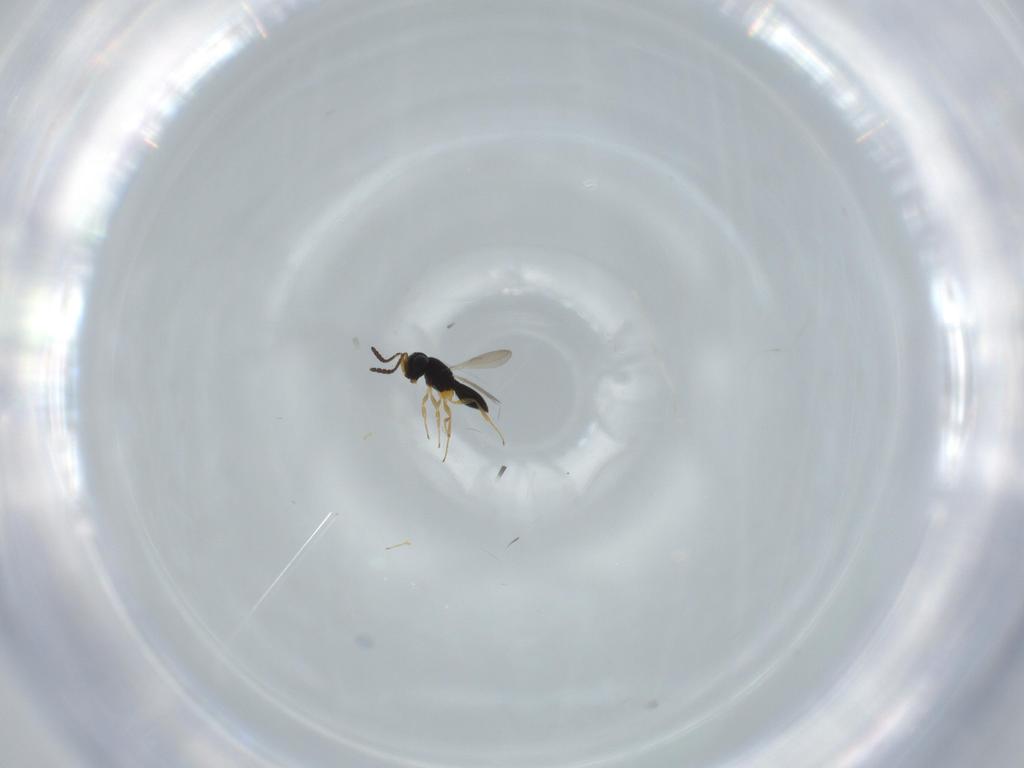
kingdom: Animalia
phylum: Arthropoda
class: Insecta
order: Hymenoptera
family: Scelionidae
